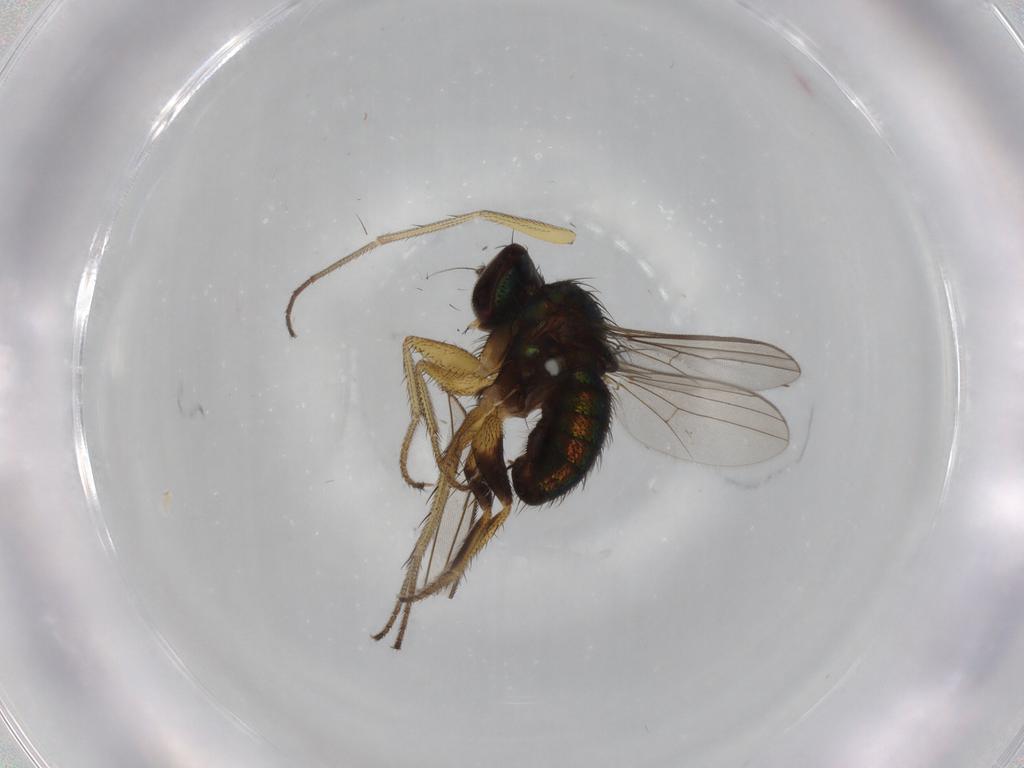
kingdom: Animalia
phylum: Arthropoda
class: Insecta
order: Diptera
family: Dolichopodidae
